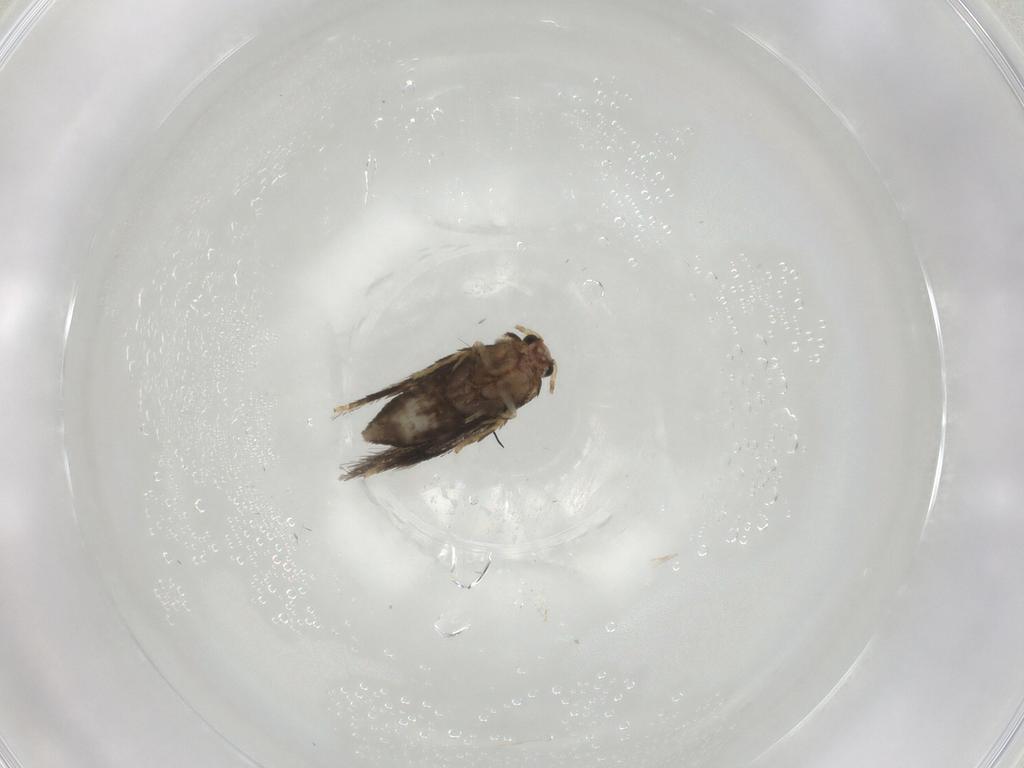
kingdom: Animalia
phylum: Arthropoda
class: Insecta
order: Lepidoptera
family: Nepticulidae
